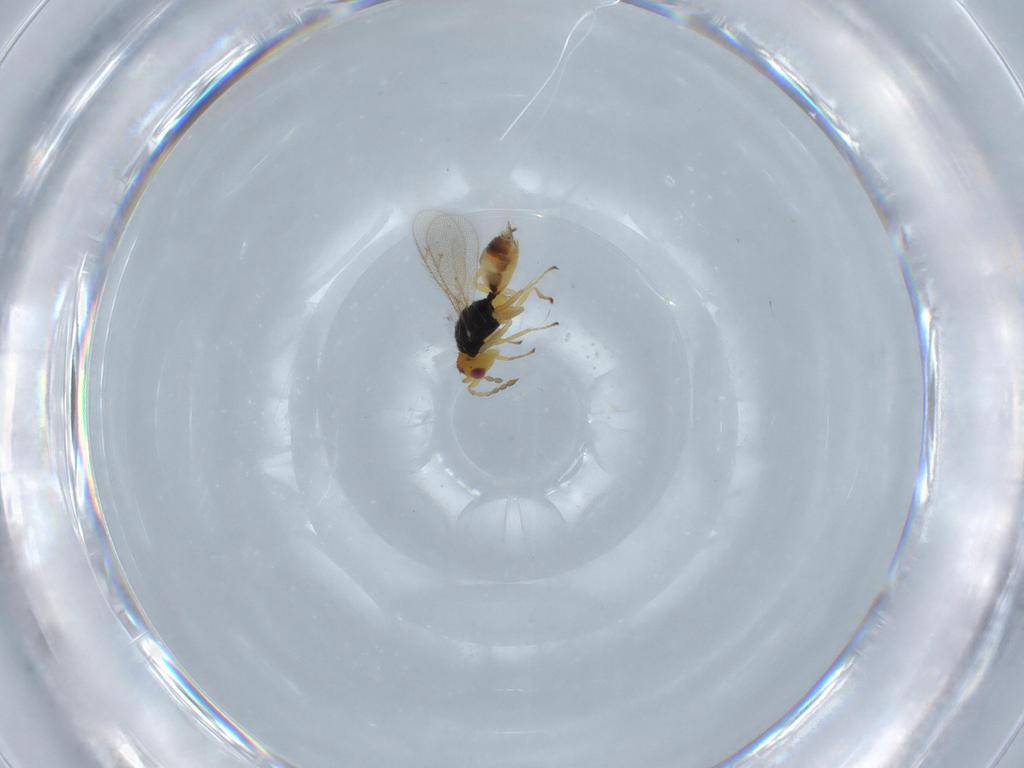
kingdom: Animalia
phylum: Arthropoda
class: Insecta
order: Hymenoptera
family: Eulophidae
